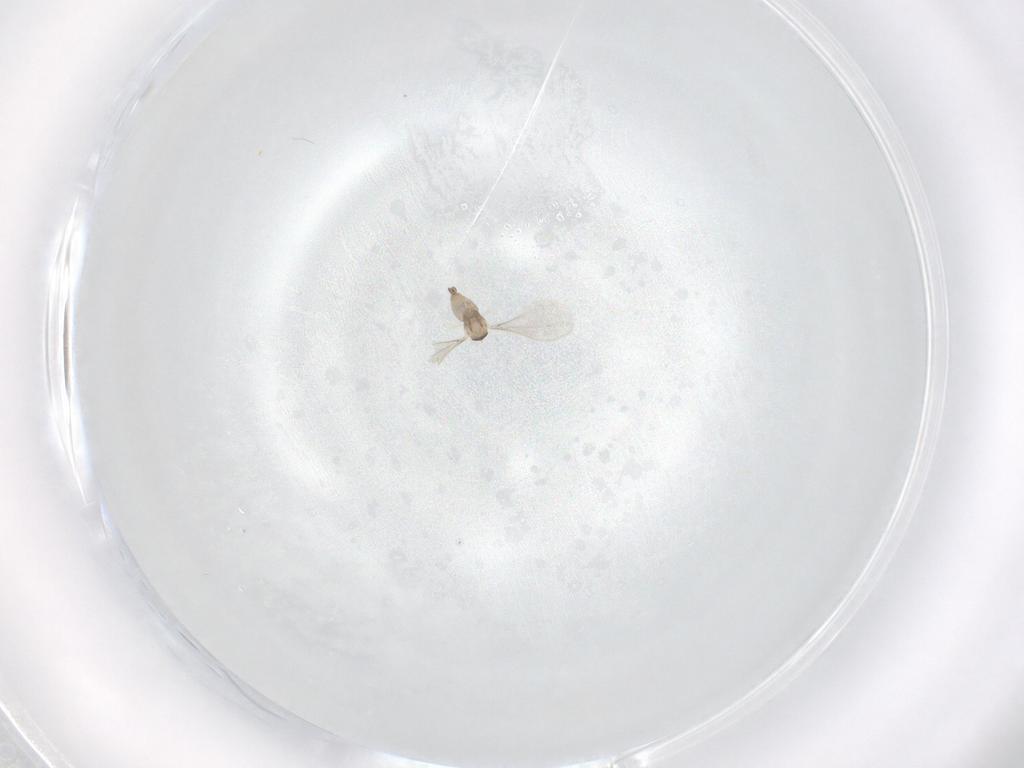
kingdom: Animalia
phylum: Arthropoda
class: Insecta
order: Diptera
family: Cecidomyiidae
